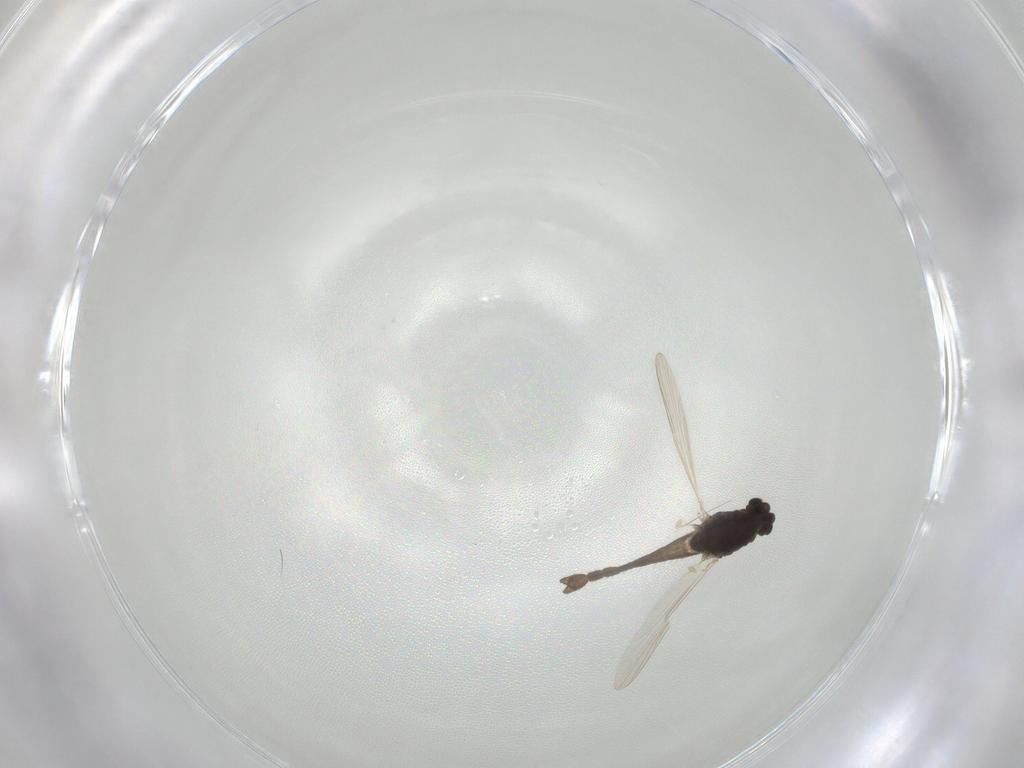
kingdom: Animalia
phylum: Arthropoda
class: Insecta
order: Diptera
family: Chironomidae
